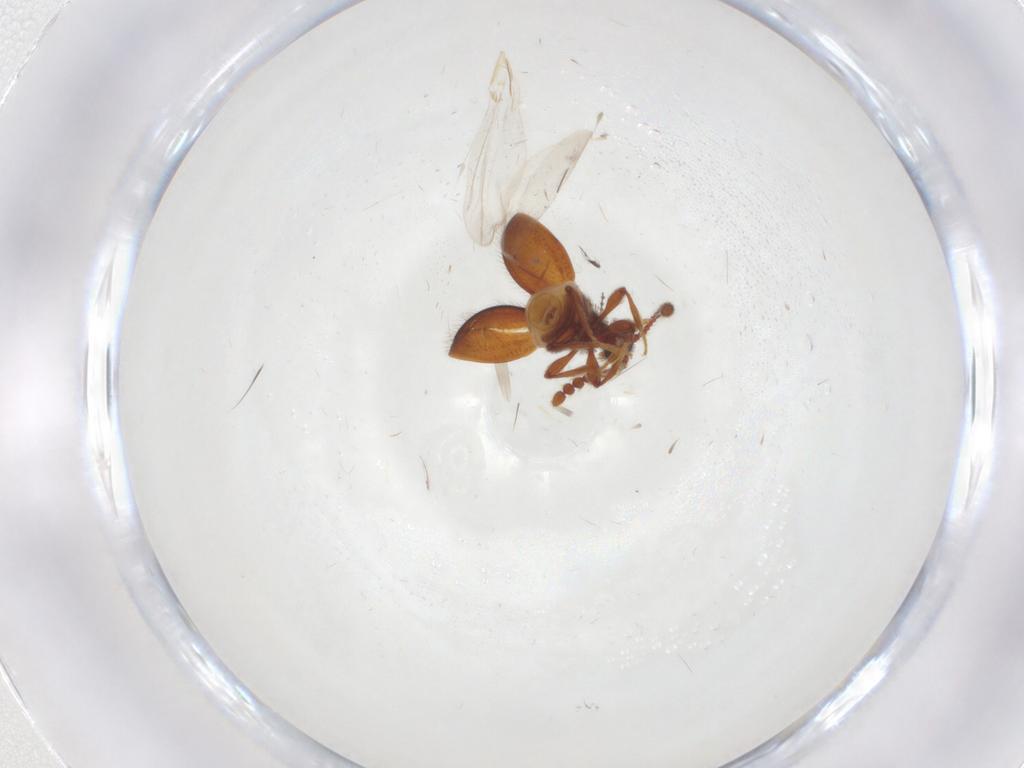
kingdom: Animalia
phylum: Arthropoda
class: Insecta
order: Coleoptera
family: Staphylinidae
